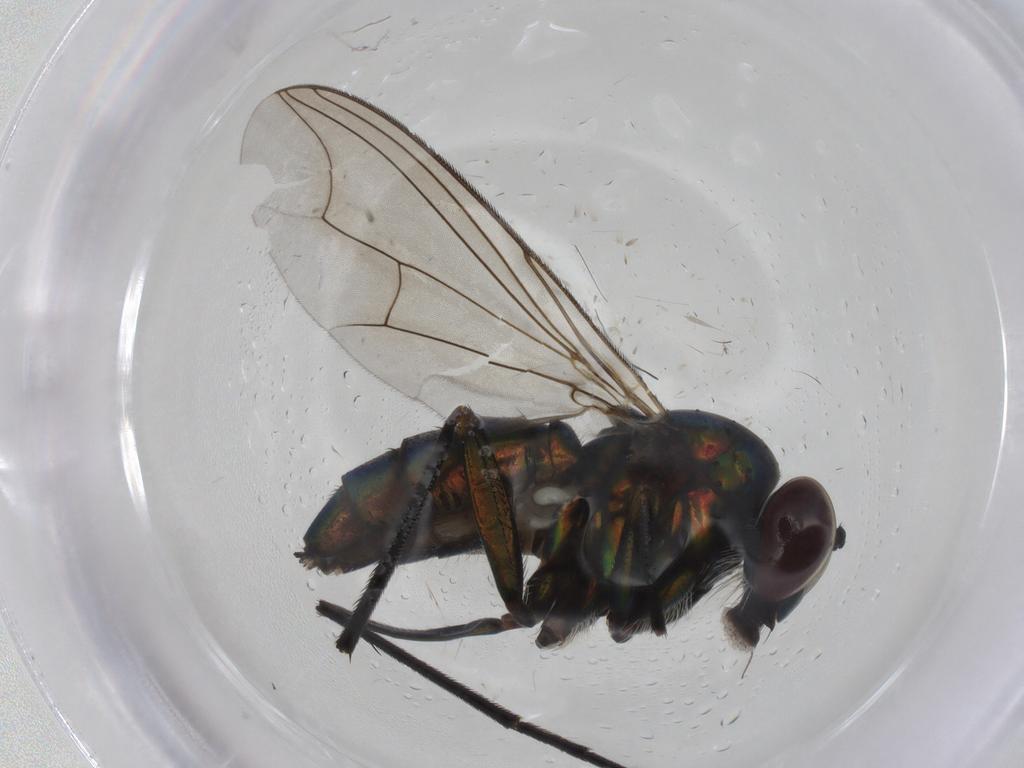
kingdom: Animalia
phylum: Arthropoda
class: Insecta
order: Diptera
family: Dolichopodidae
